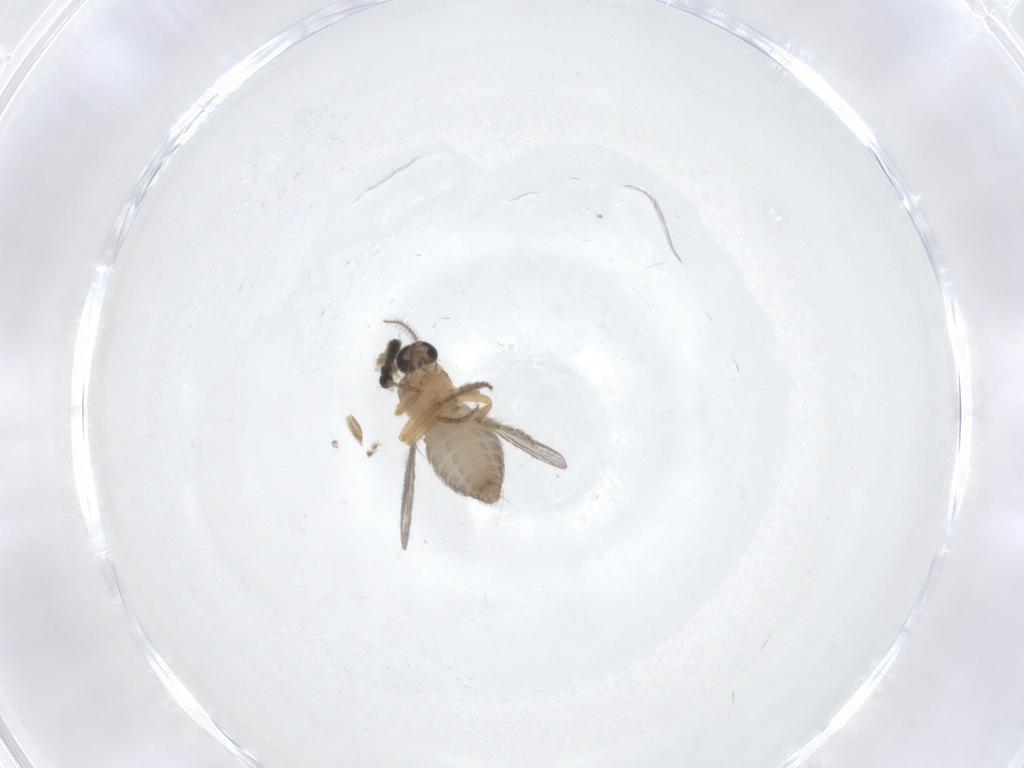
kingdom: Animalia
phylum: Arthropoda
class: Insecta
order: Diptera
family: Ceratopogonidae
